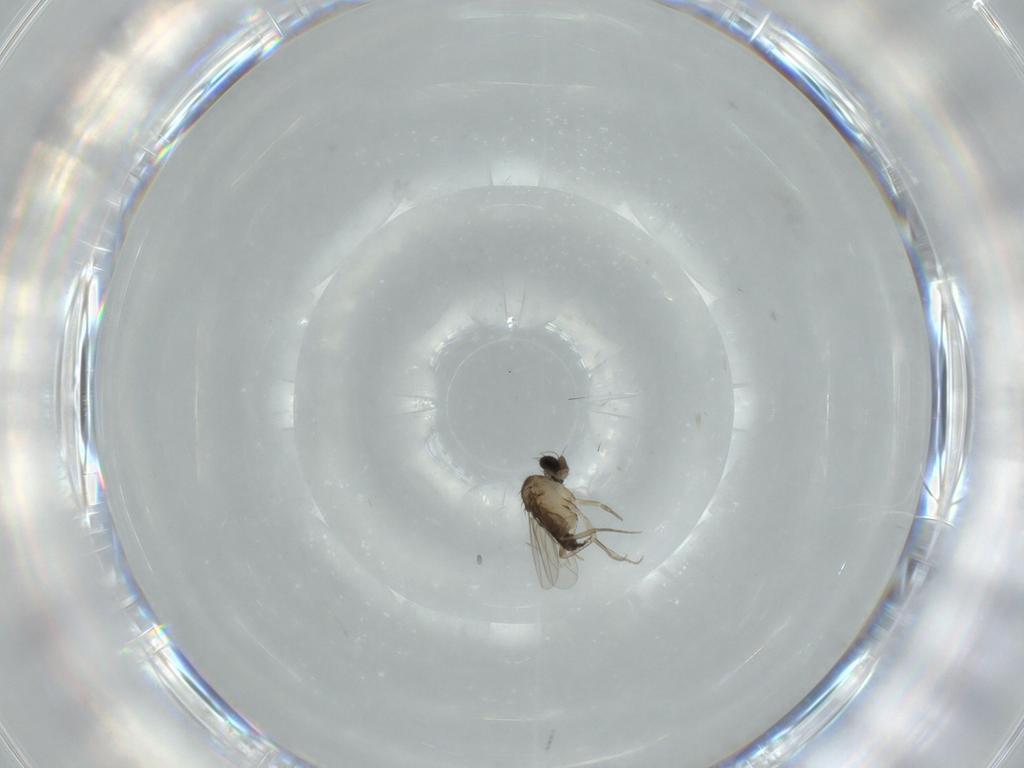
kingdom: Animalia
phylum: Arthropoda
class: Insecta
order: Diptera
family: Phoridae
